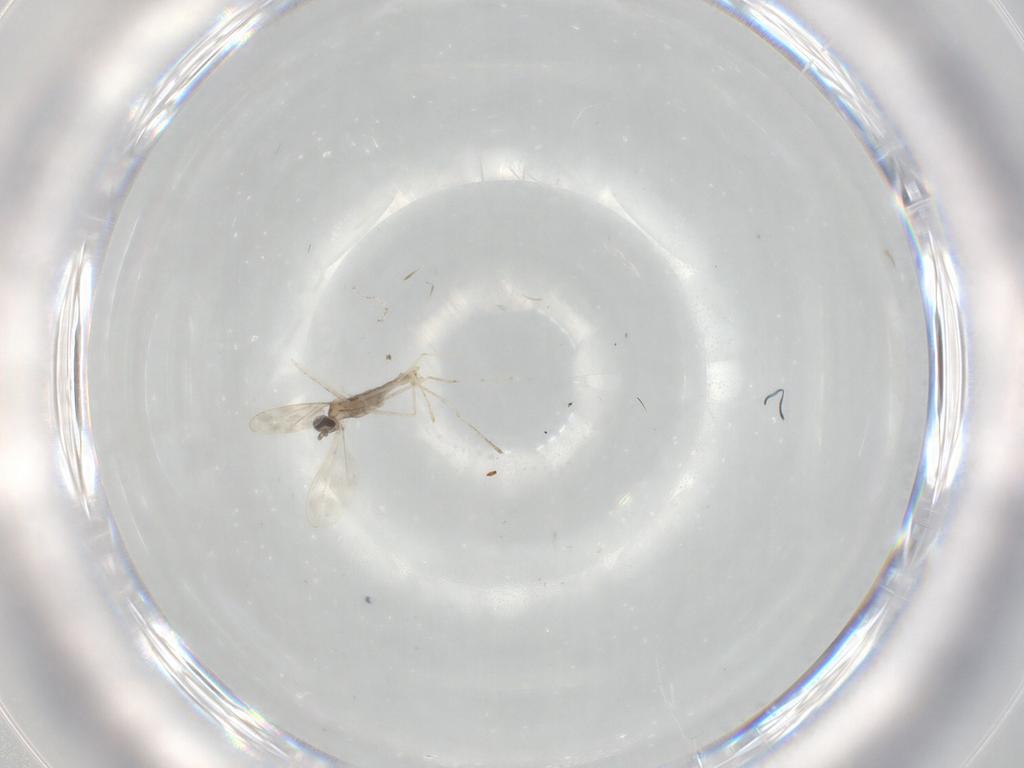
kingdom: Animalia
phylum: Arthropoda
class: Insecta
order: Diptera
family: Cecidomyiidae
